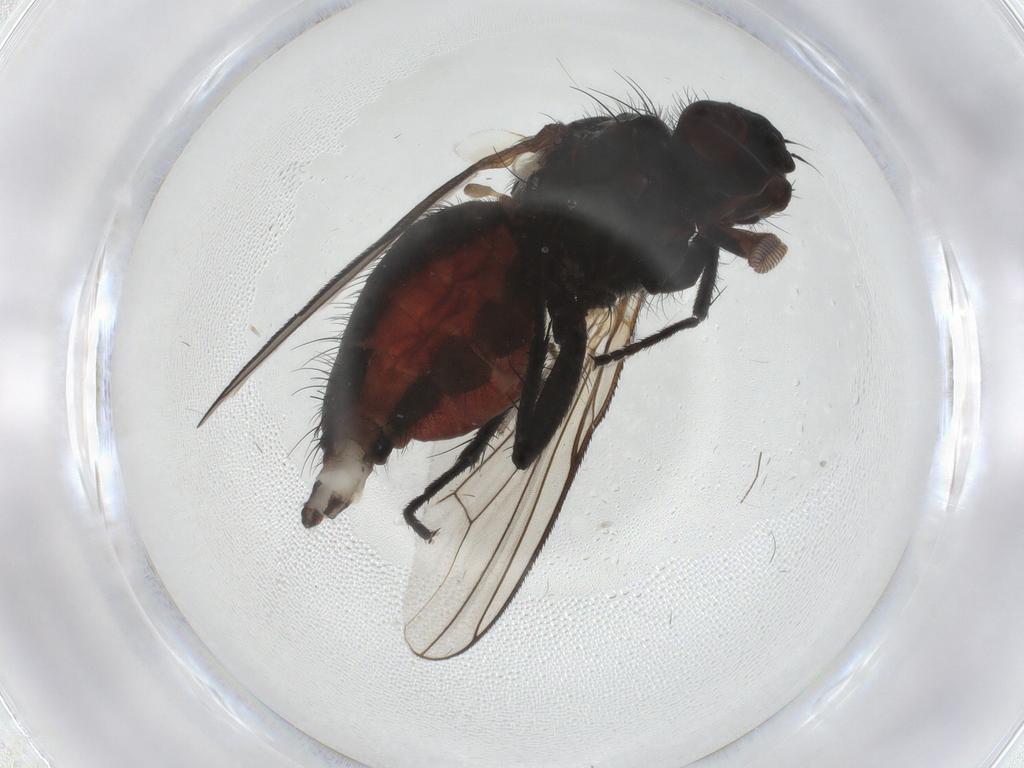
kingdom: Animalia
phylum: Arthropoda
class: Insecta
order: Diptera
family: Anthomyiidae
